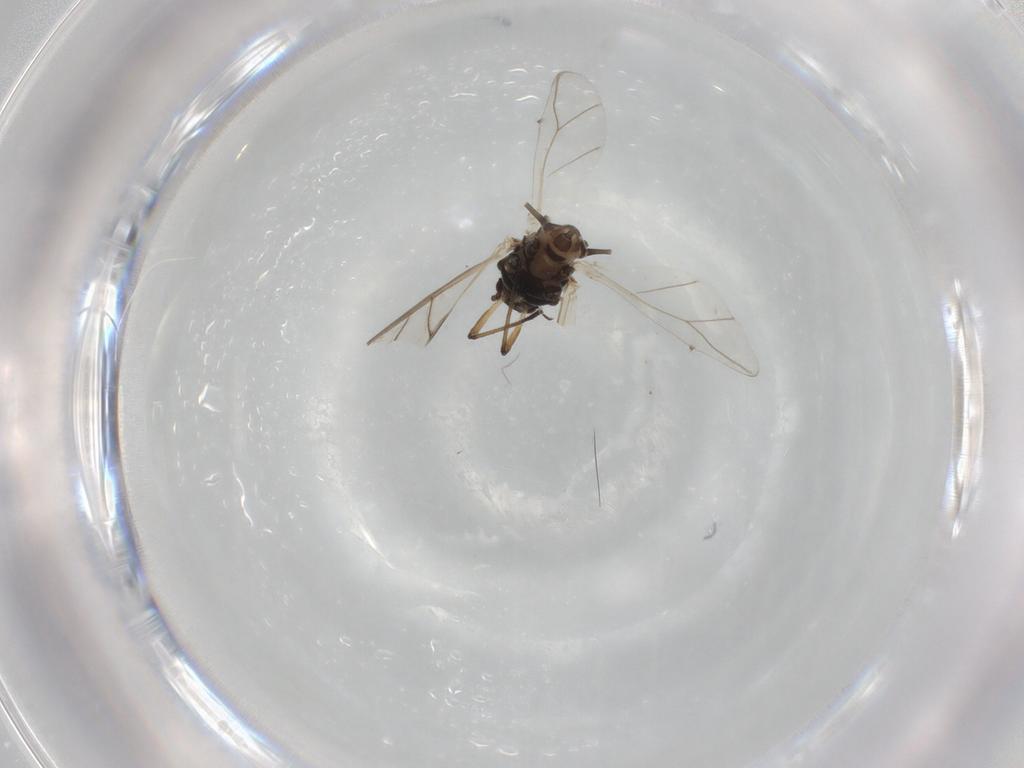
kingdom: Animalia
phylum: Arthropoda
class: Insecta
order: Hemiptera
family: Aphididae
